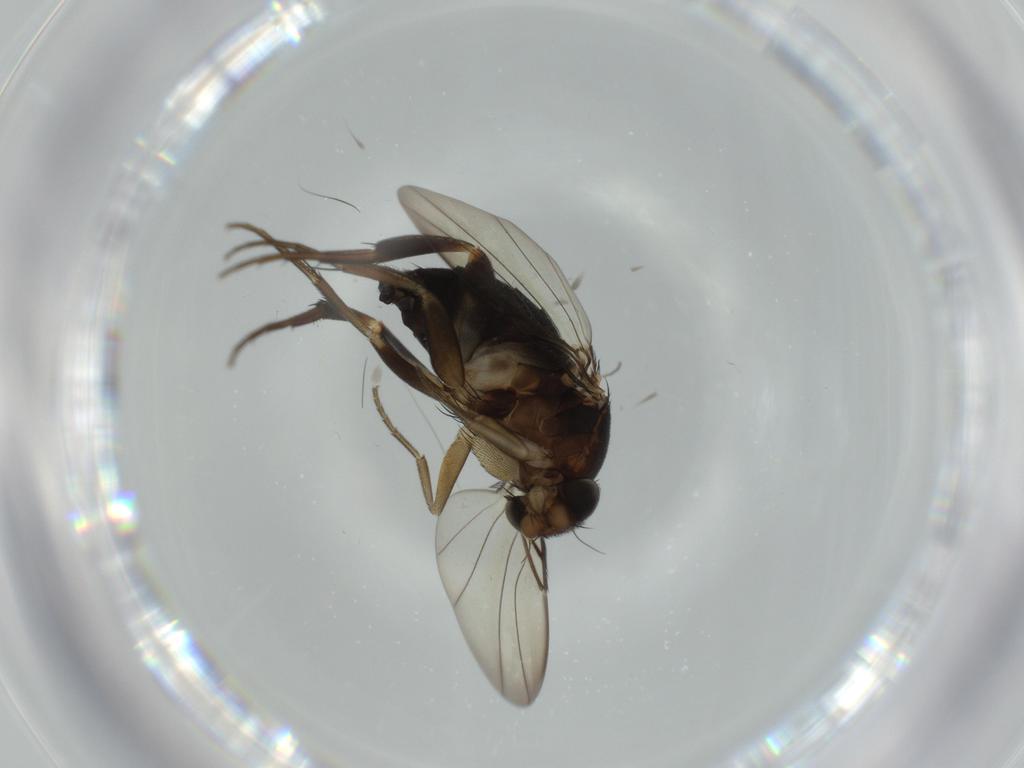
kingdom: Animalia
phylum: Arthropoda
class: Insecta
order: Diptera
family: Phoridae
